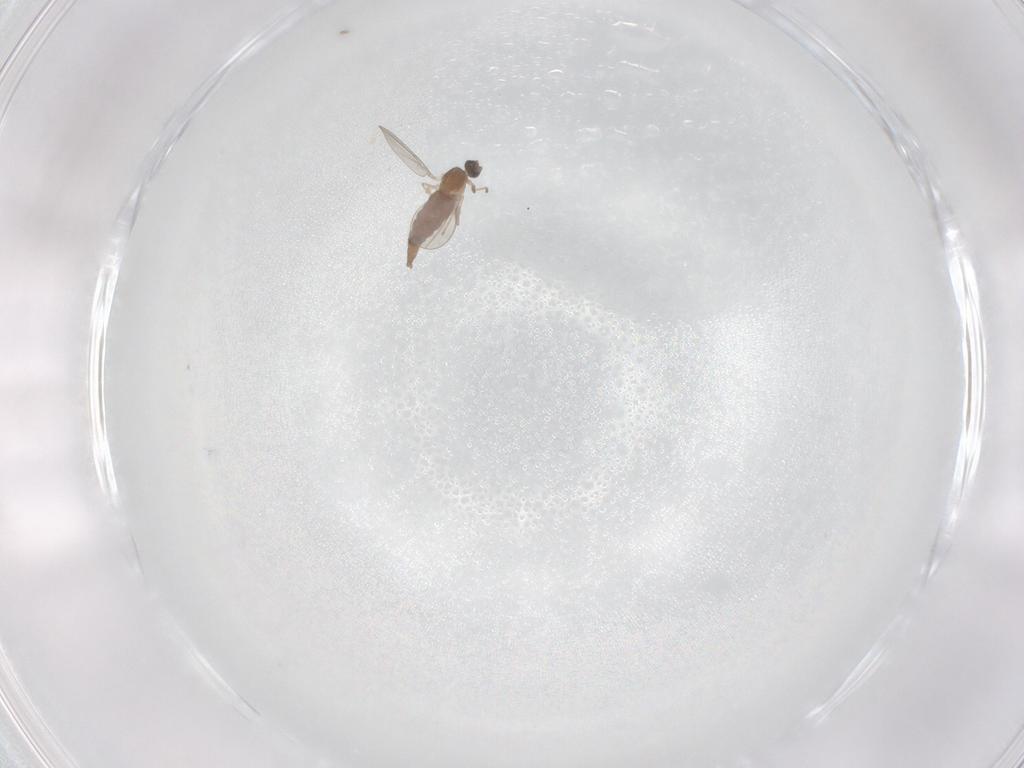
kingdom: Animalia
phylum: Arthropoda
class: Insecta
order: Diptera
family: Cecidomyiidae
